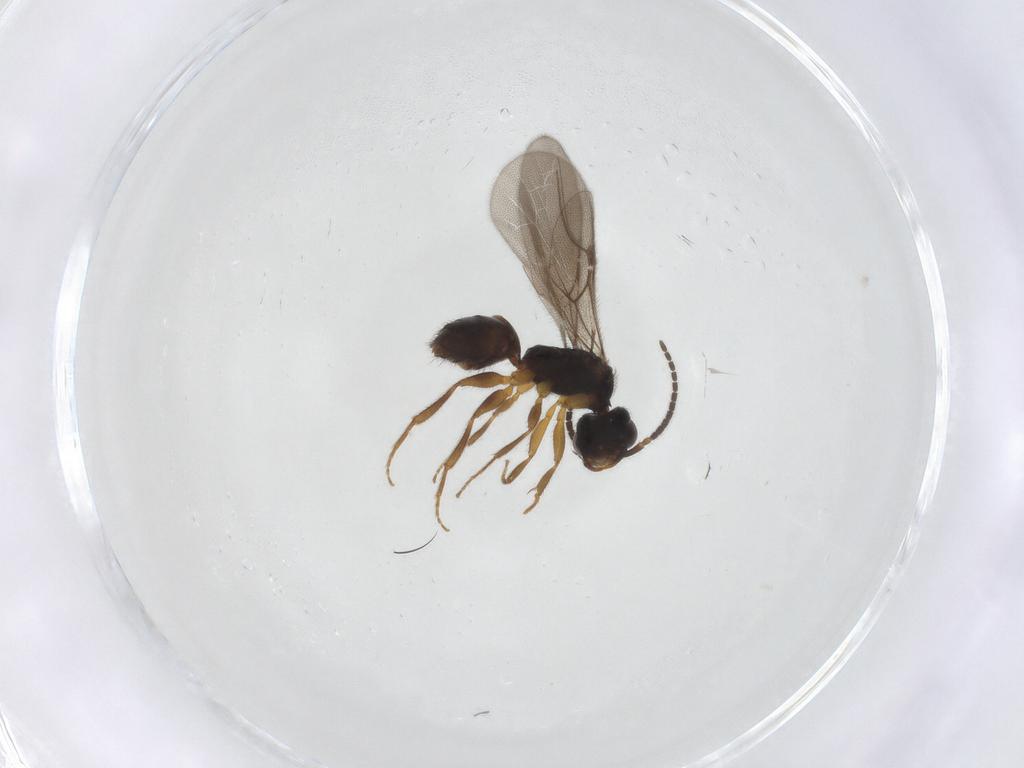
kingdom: Animalia
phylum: Arthropoda
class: Insecta
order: Hymenoptera
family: Bethylidae
